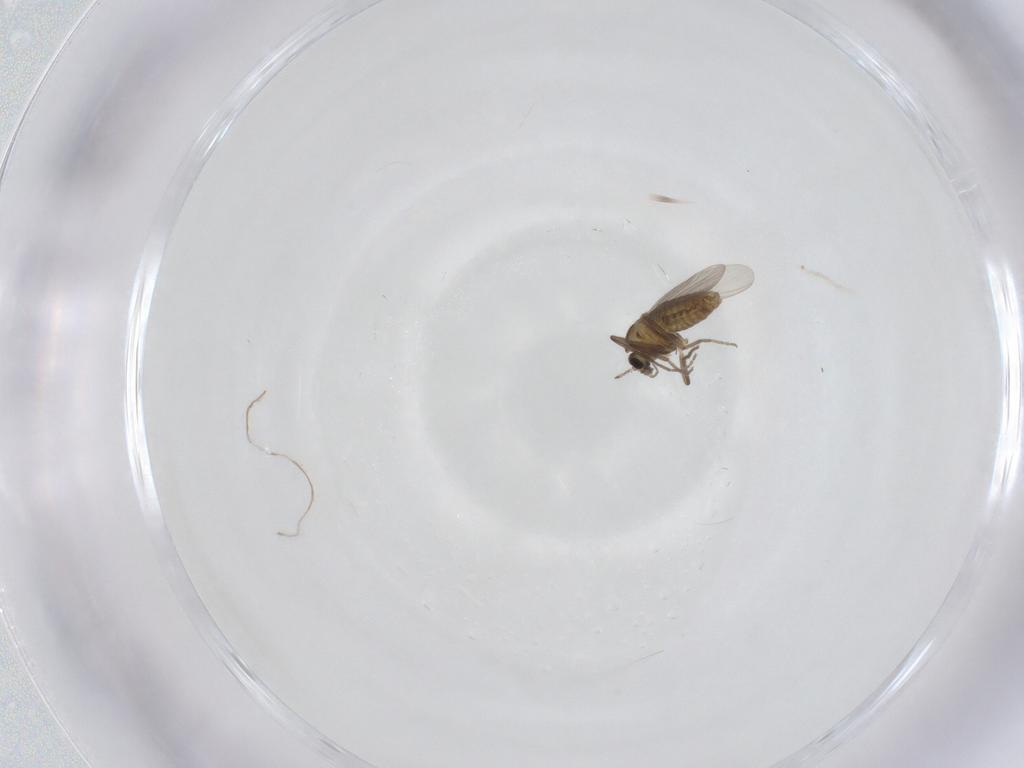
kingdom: Animalia
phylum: Arthropoda
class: Insecta
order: Diptera
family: Chironomidae
